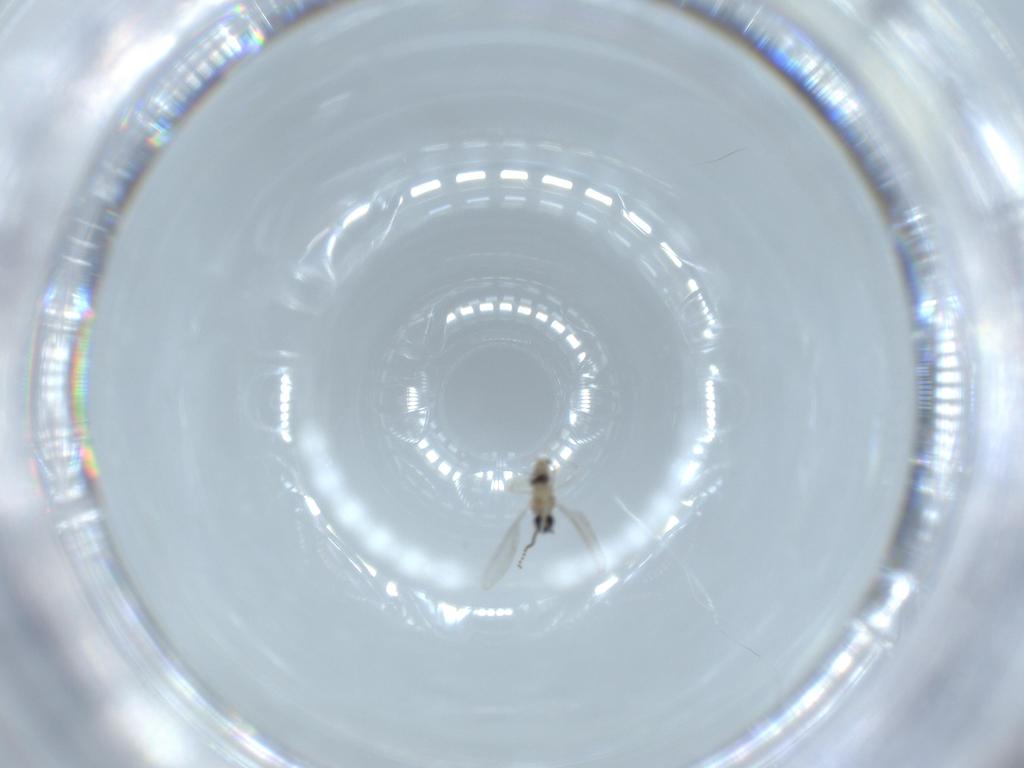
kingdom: Animalia
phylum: Arthropoda
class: Insecta
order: Diptera
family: Cecidomyiidae
